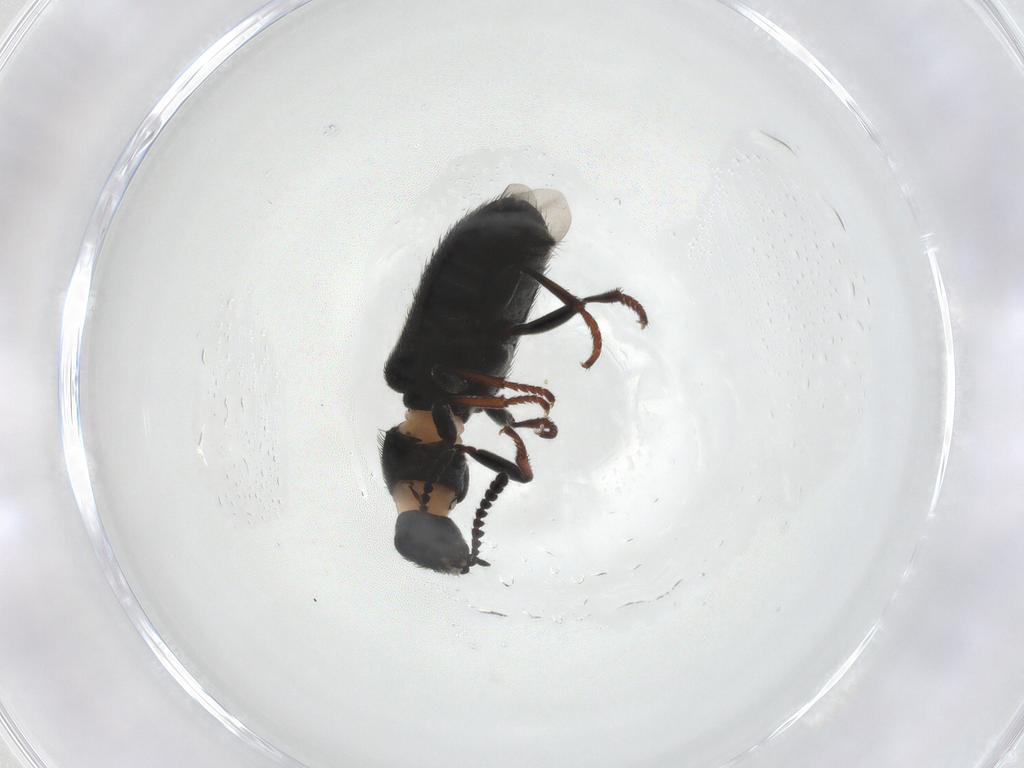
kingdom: Animalia
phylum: Arthropoda
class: Insecta
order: Coleoptera
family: Melyridae
